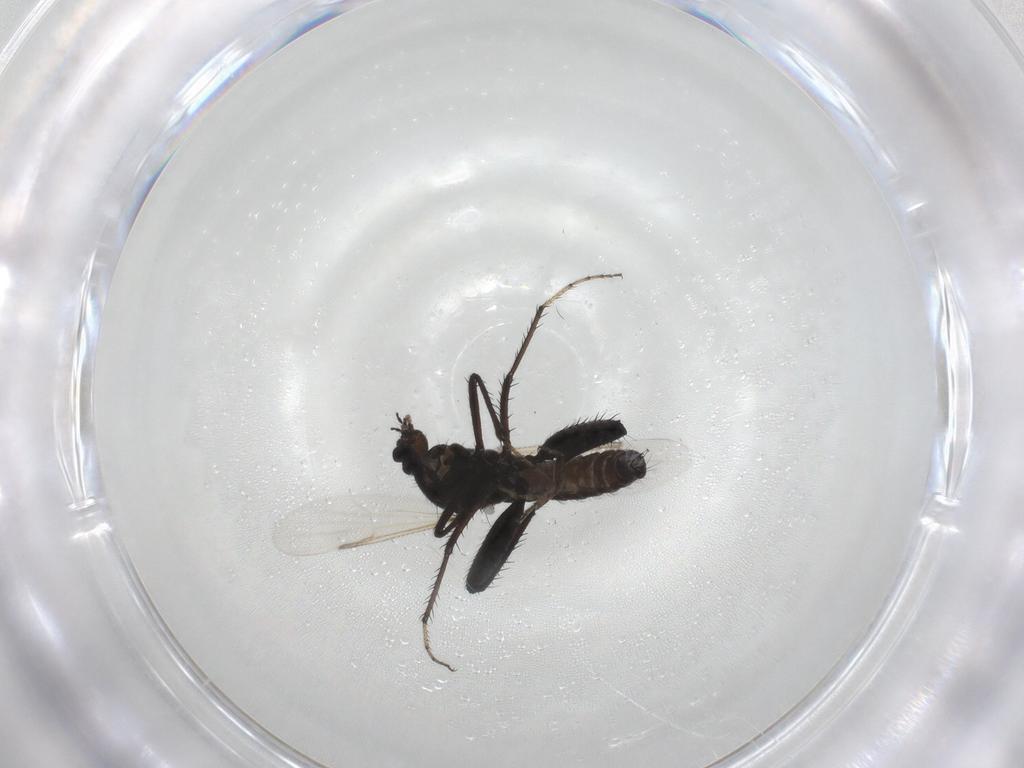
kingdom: Animalia
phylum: Arthropoda
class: Insecta
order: Diptera
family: Ceratopogonidae
